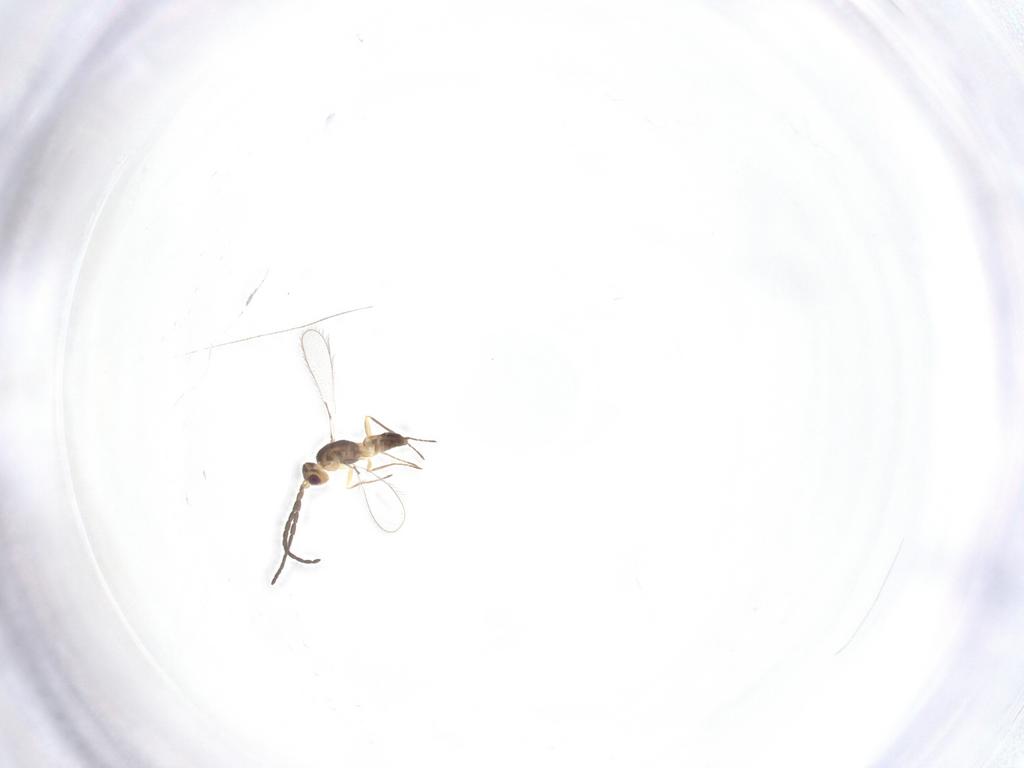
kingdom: Animalia
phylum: Arthropoda
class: Insecta
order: Hymenoptera
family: Mymaridae
